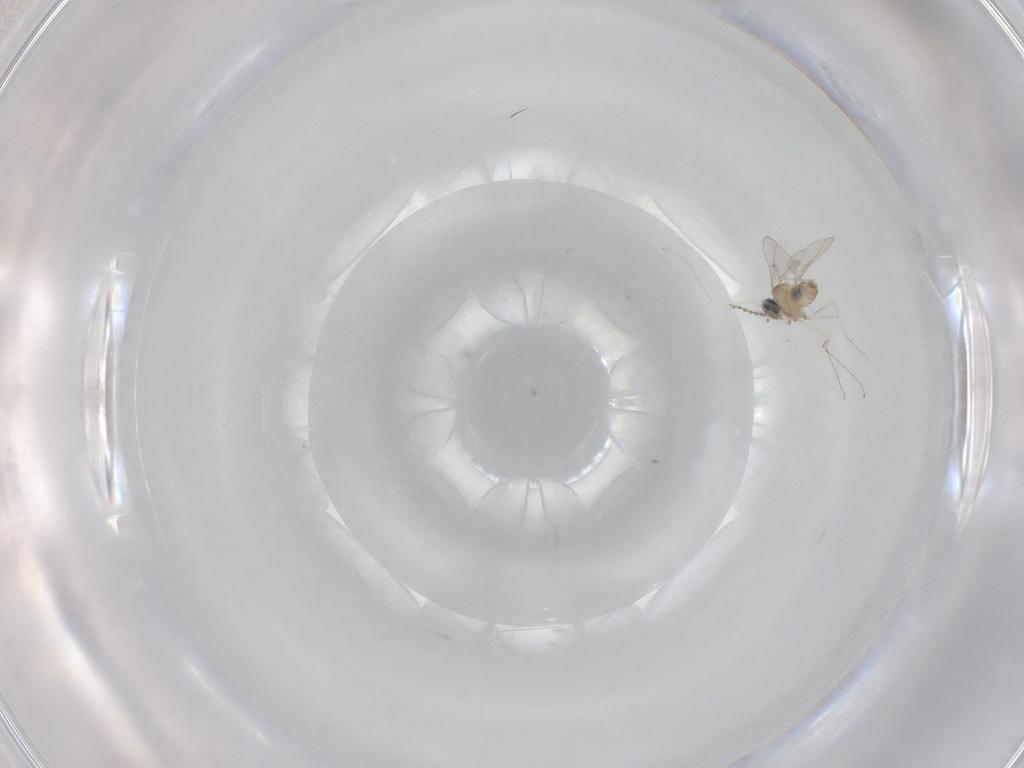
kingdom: Animalia
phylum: Arthropoda
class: Insecta
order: Diptera
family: Cecidomyiidae
